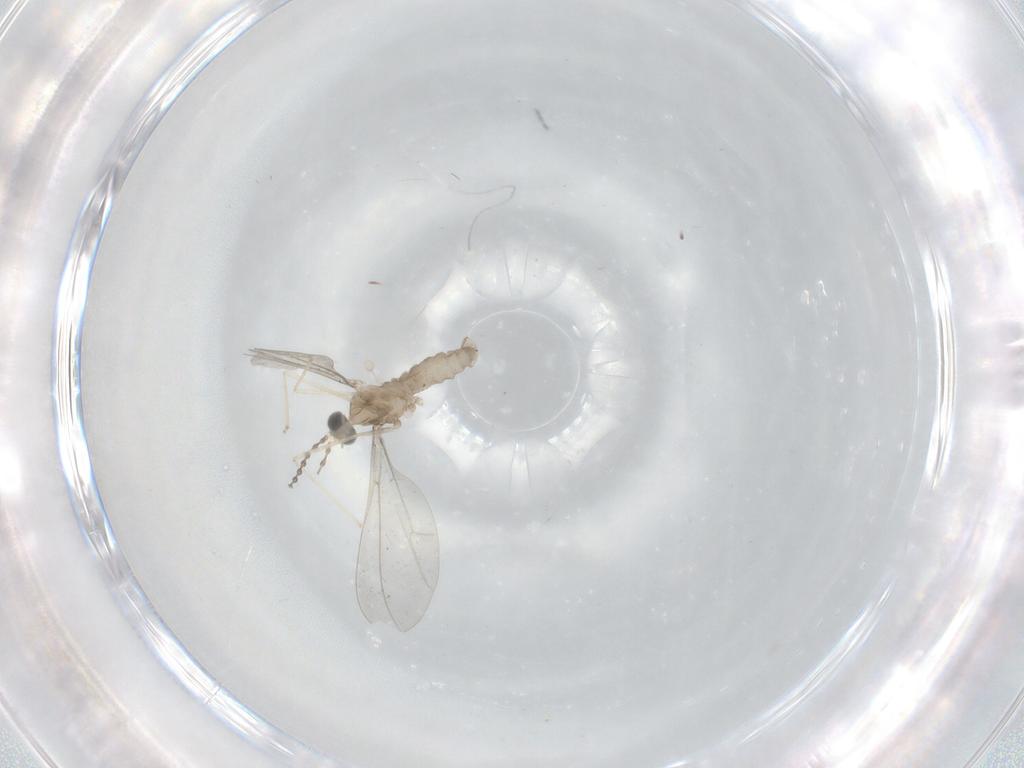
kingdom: Animalia
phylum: Arthropoda
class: Insecta
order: Diptera
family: Cecidomyiidae
